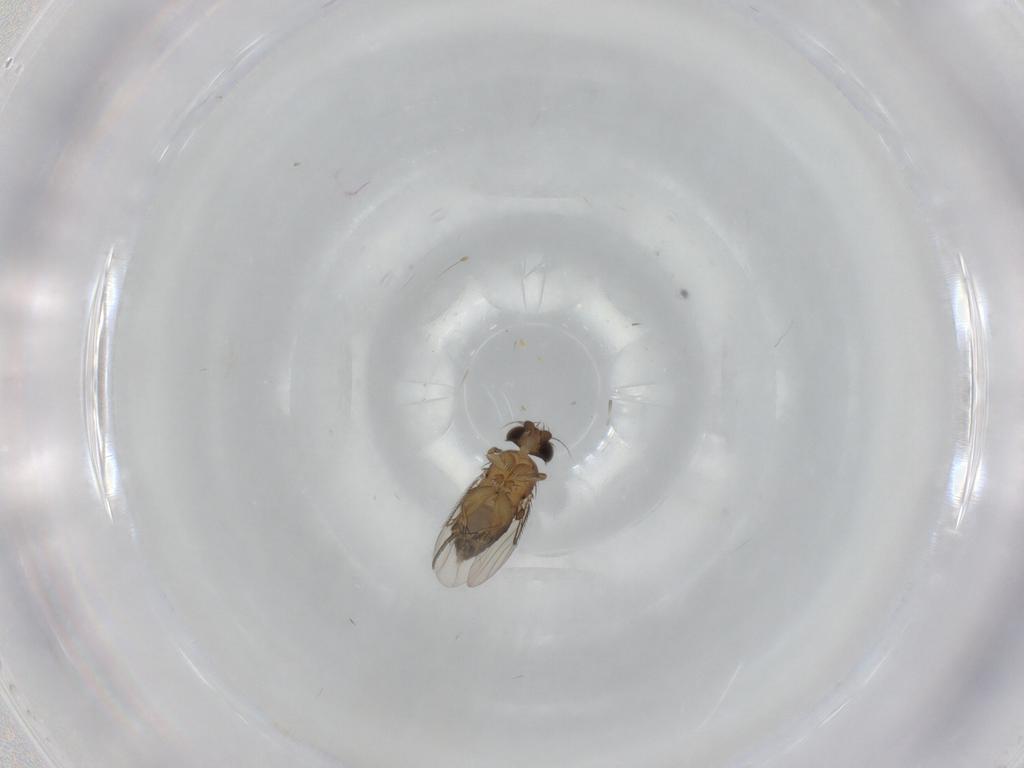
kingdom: Animalia
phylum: Arthropoda
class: Insecta
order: Diptera
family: Phoridae
